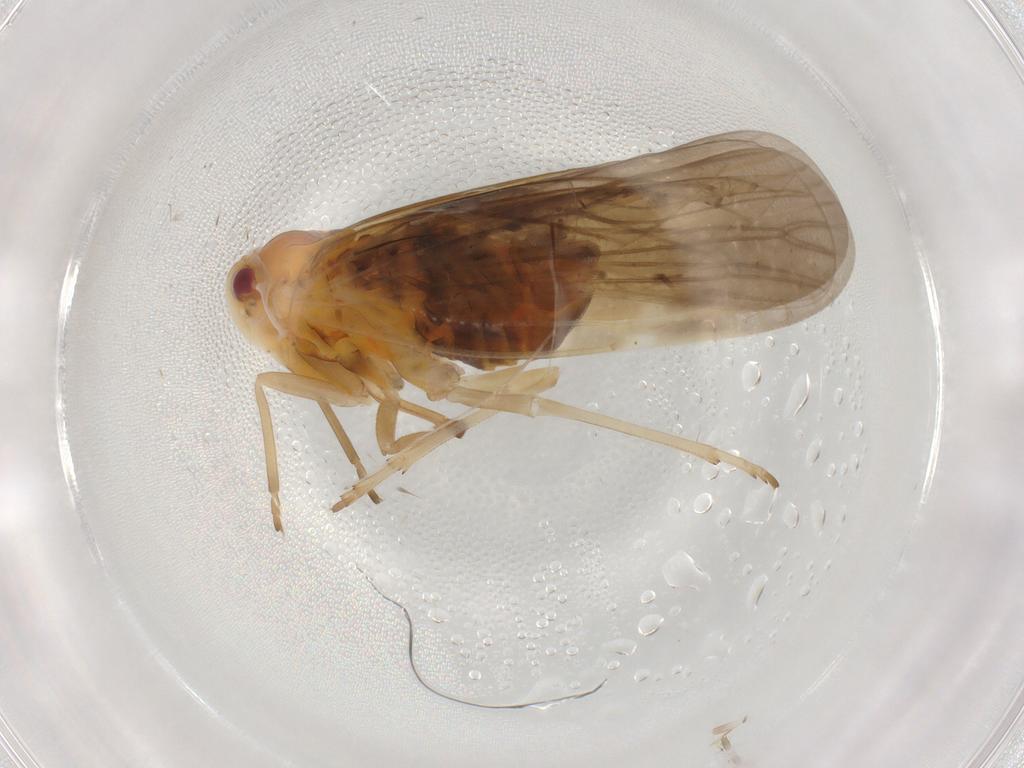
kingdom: Animalia
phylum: Arthropoda
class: Insecta
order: Hemiptera
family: Derbidae
